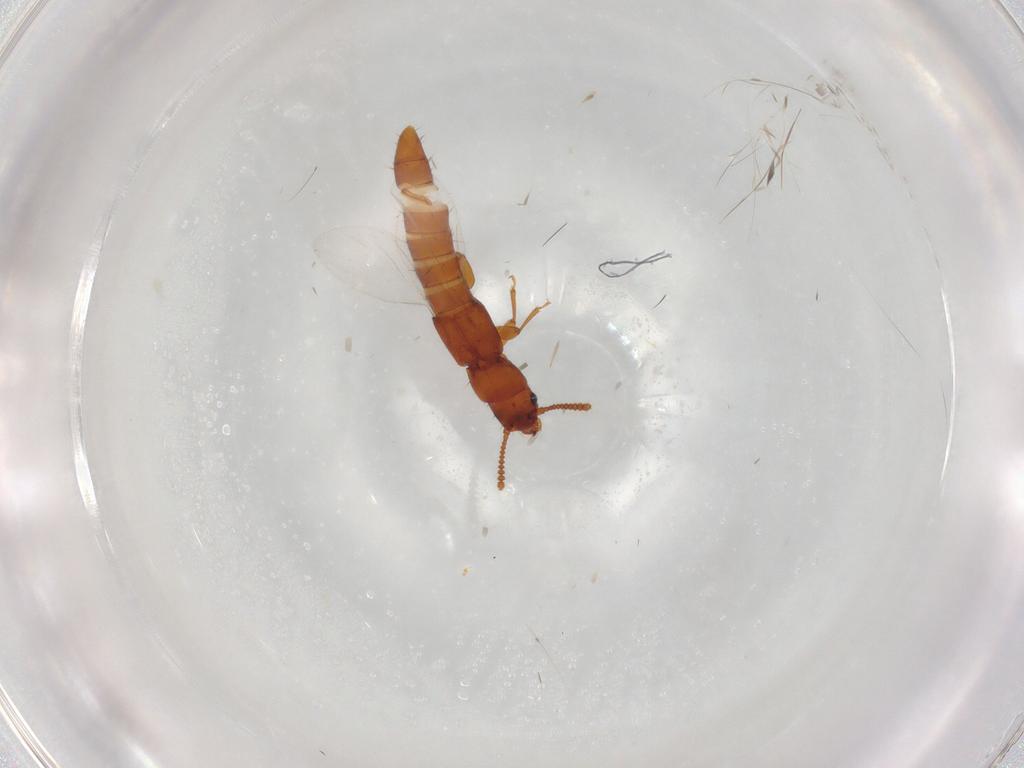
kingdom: Animalia
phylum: Arthropoda
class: Insecta
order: Coleoptera
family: Staphylinidae
